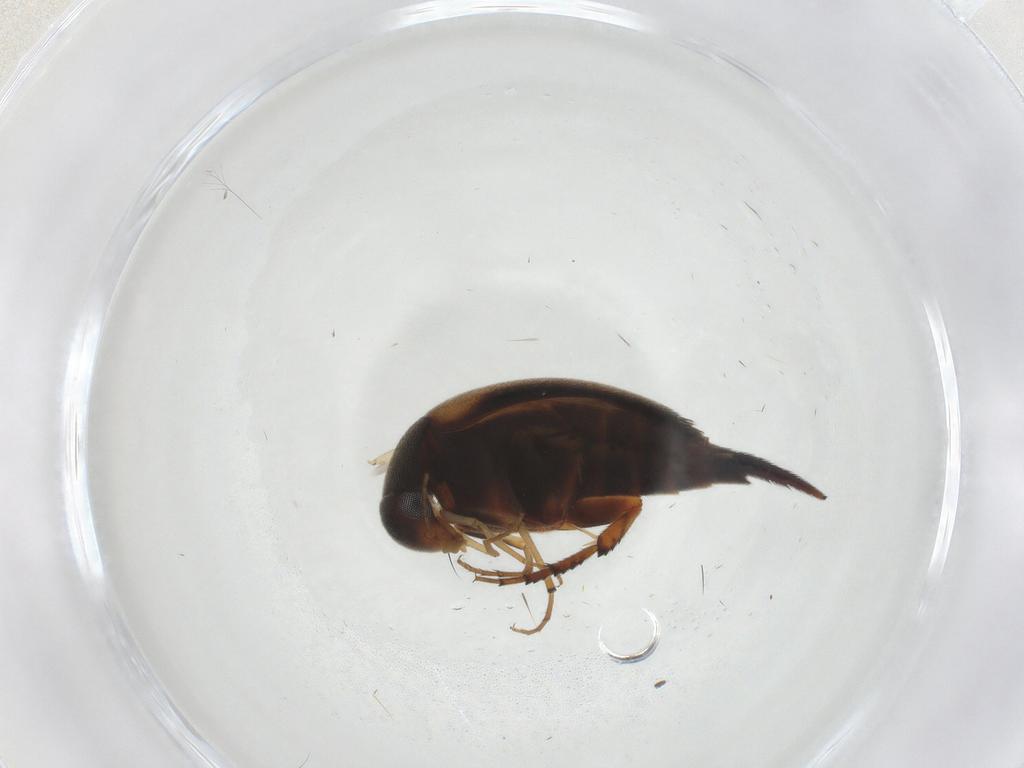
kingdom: Animalia
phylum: Arthropoda
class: Insecta
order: Coleoptera
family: Mordellidae
